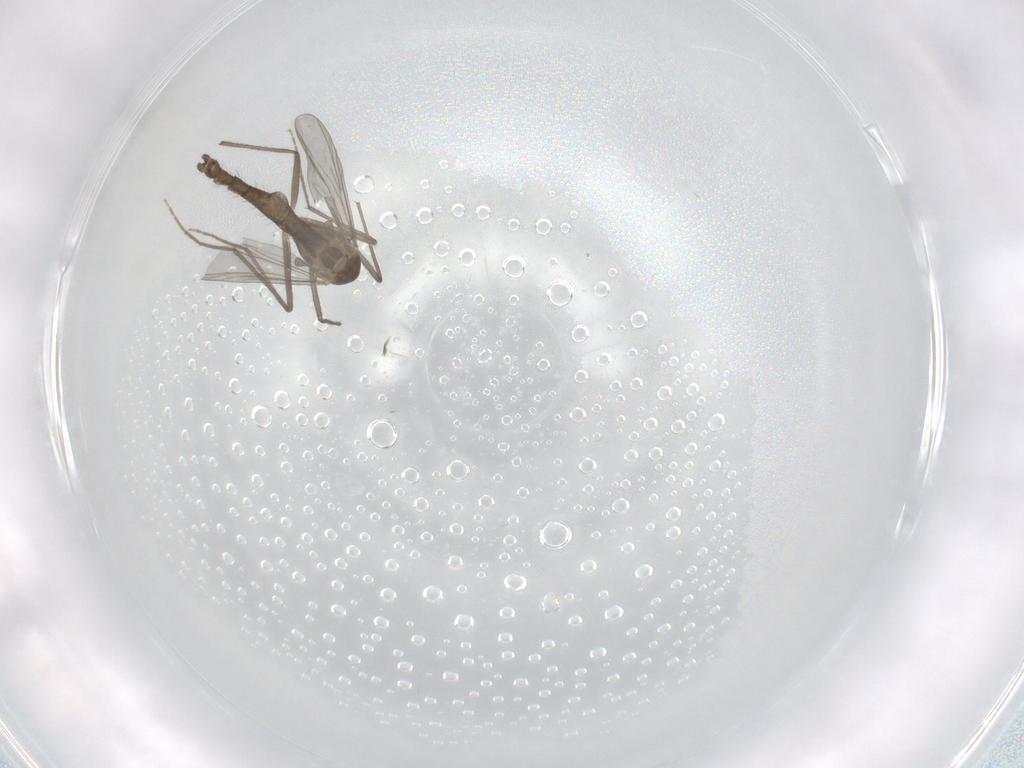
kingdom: Animalia
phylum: Arthropoda
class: Insecta
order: Diptera
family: Chironomidae
